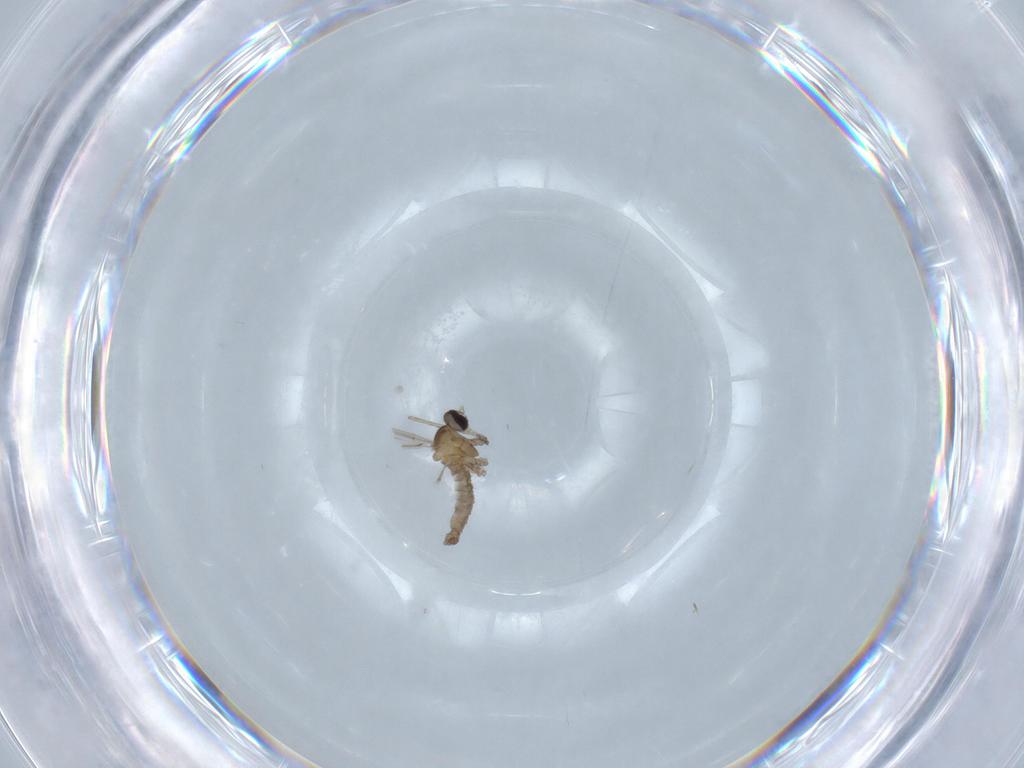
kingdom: Animalia
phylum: Arthropoda
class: Insecta
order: Diptera
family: Cecidomyiidae
